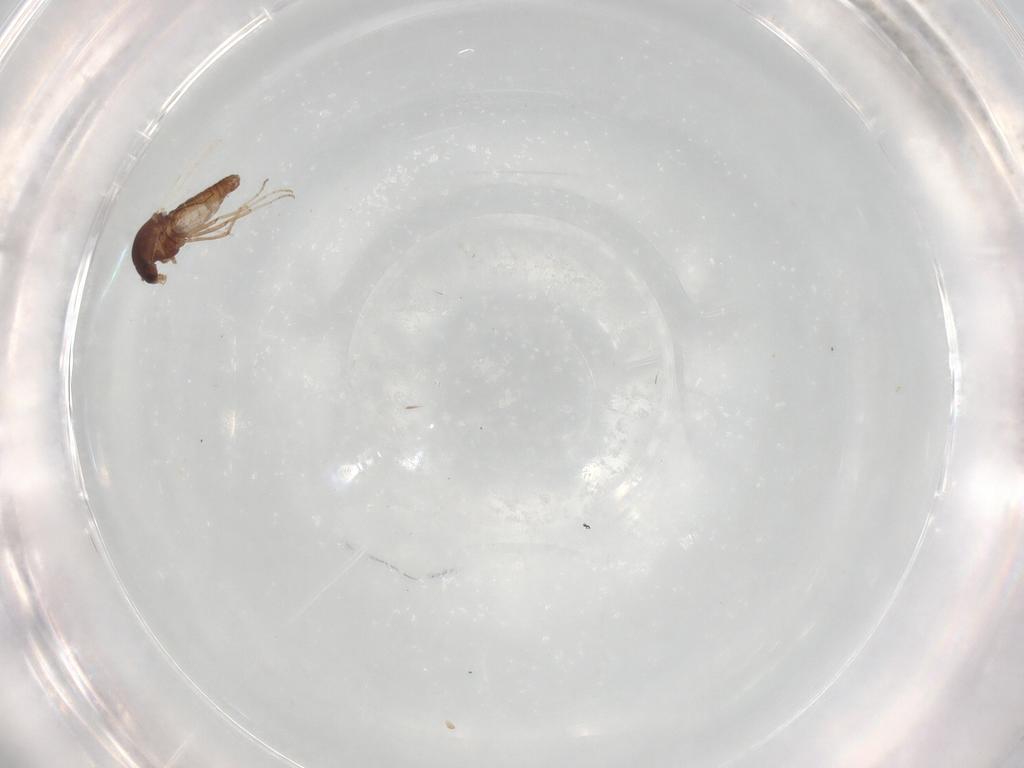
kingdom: Animalia
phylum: Arthropoda
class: Insecta
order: Diptera
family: Ceratopogonidae
